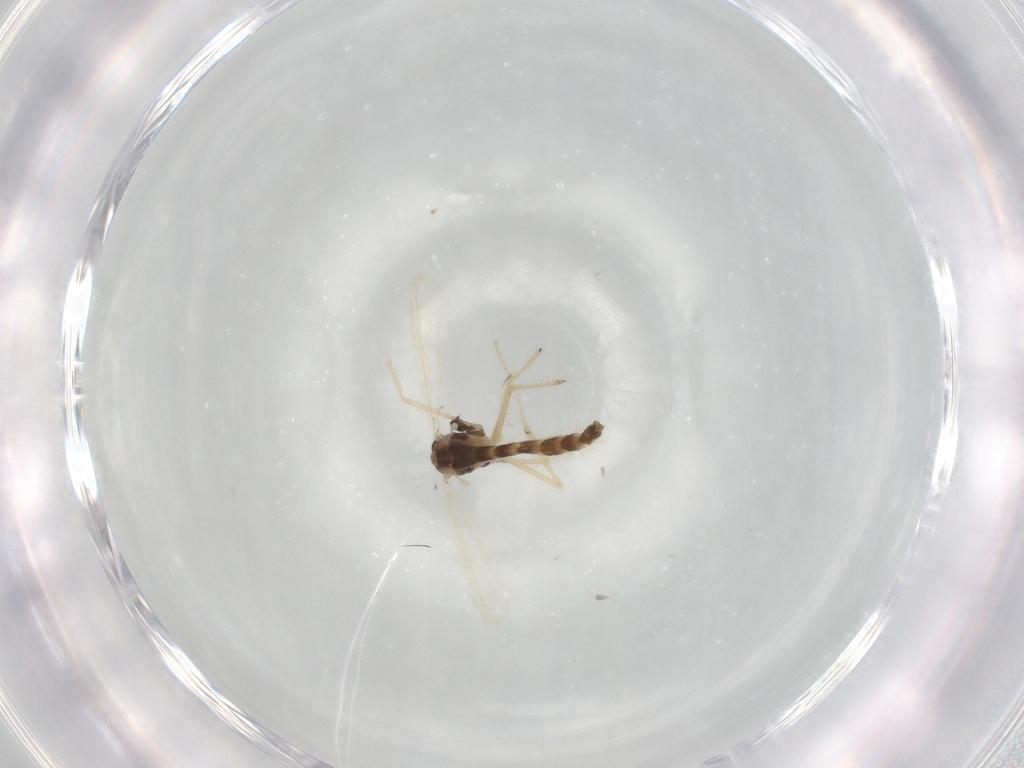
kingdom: Animalia
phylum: Arthropoda
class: Insecta
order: Diptera
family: Chironomidae
